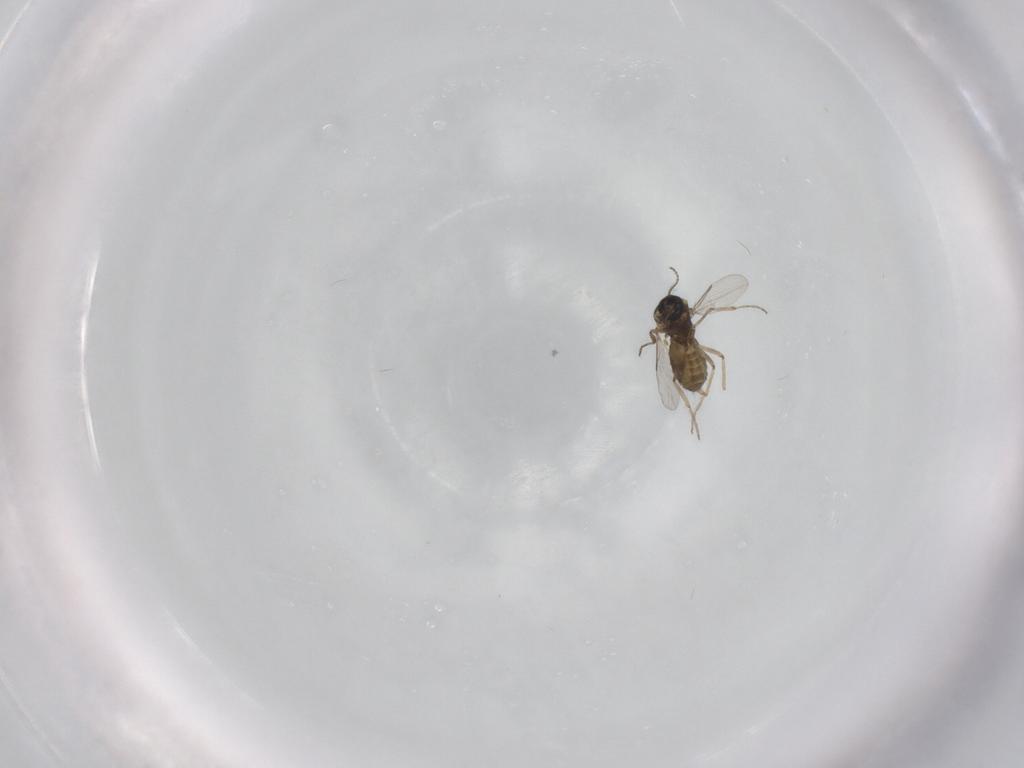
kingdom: Animalia
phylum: Arthropoda
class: Insecta
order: Diptera
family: Ceratopogonidae
